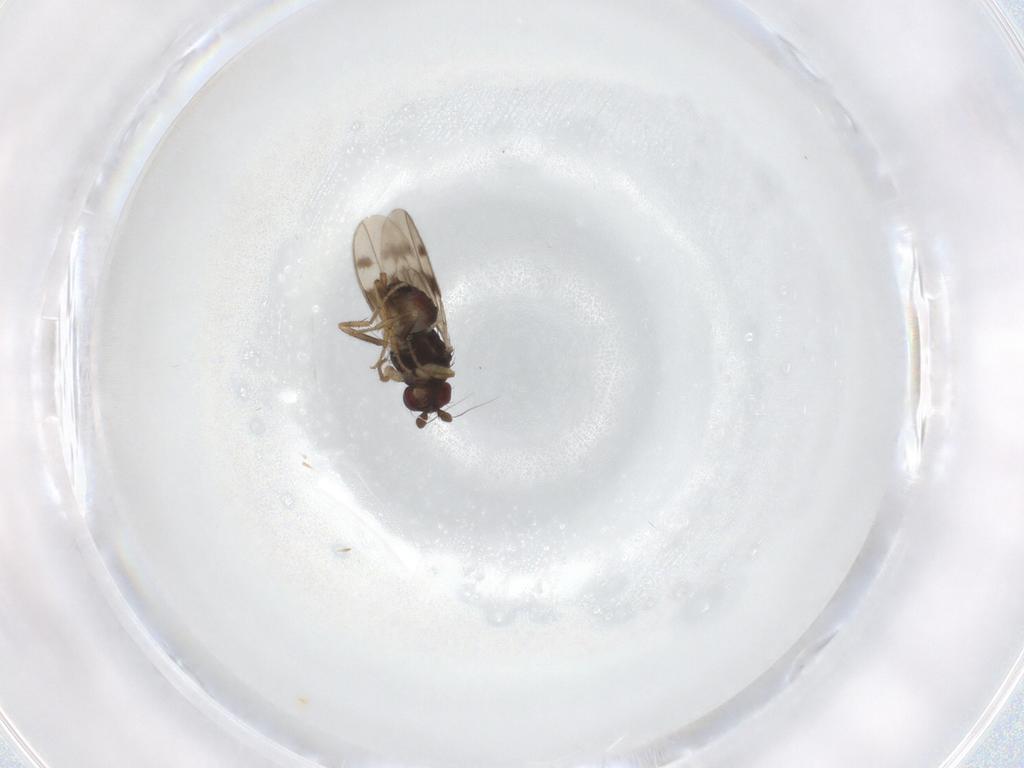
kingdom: Animalia
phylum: Arthropoda
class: Insecta
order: Diptera
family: Sphaeroceridae
